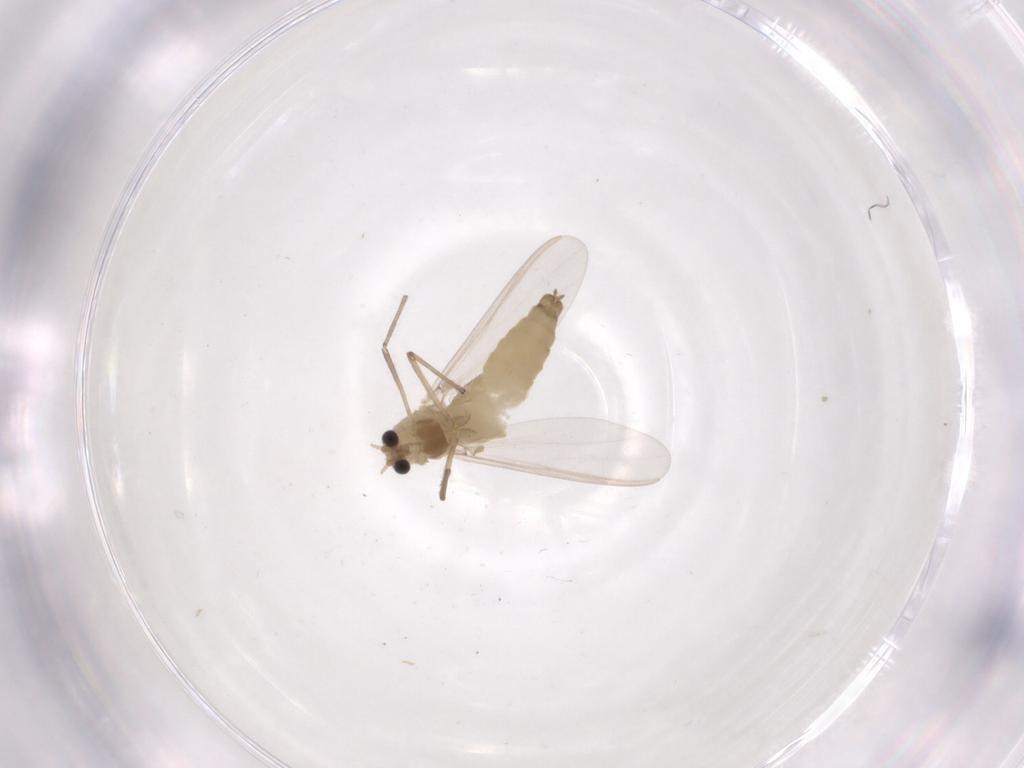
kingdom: Animalia
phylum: Arthropoda
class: Insecta
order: Diptera
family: Chironomidae
